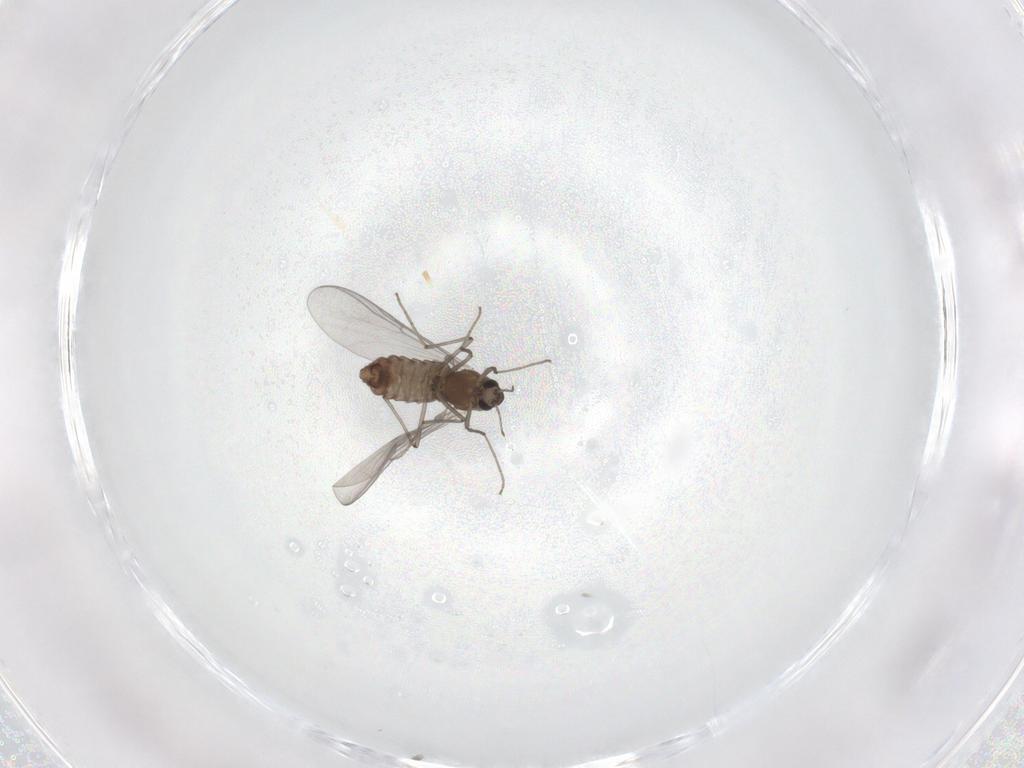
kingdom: Animalia
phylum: Arthropoda
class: Insecta
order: Diptera
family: Chironomidae
